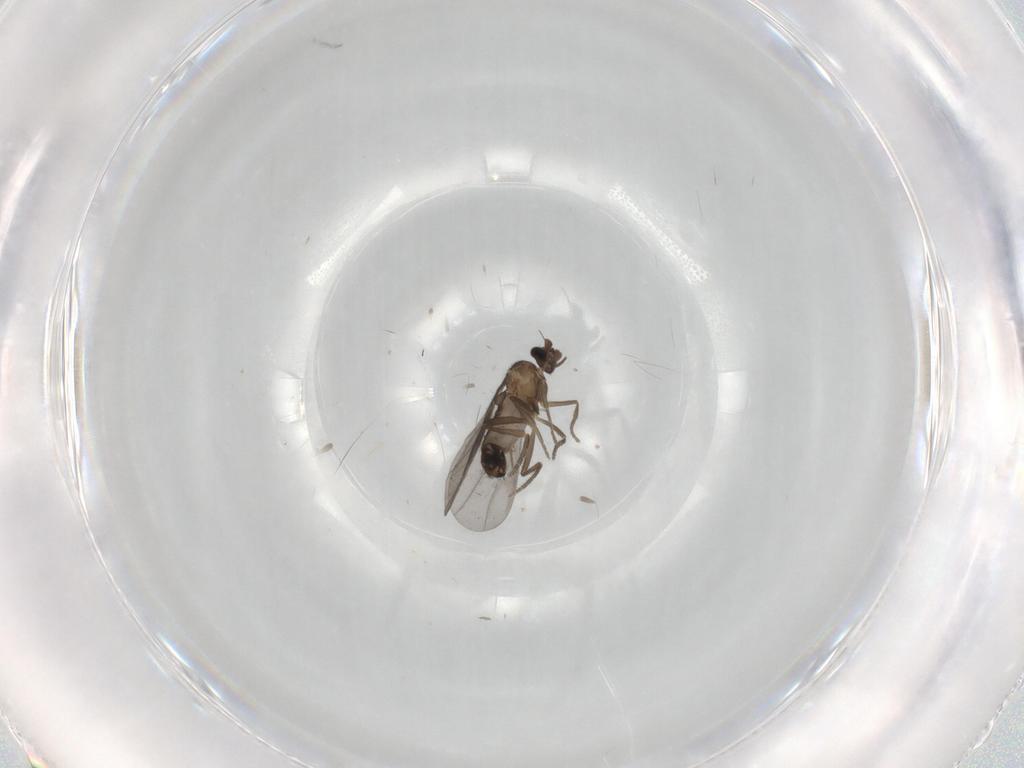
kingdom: Animalia
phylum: Arthropoda
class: Insecta
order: Diptera
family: Phoridae
